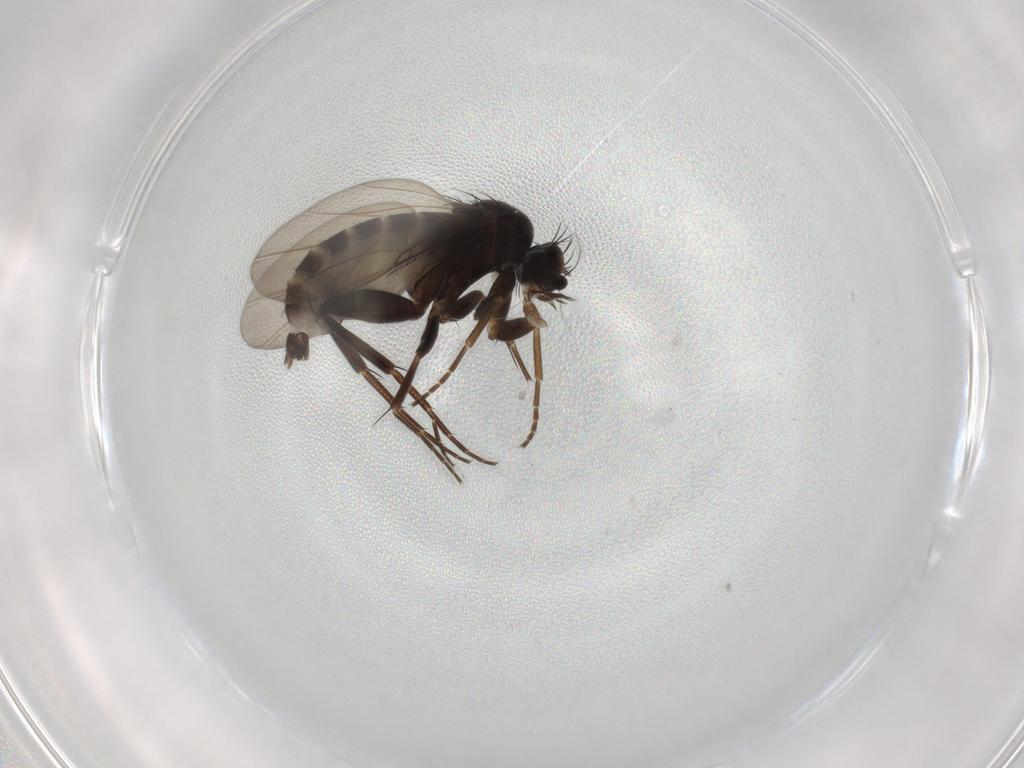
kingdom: Animalia
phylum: Arthropoda
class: Insecta
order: Diptera
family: Phoridae
